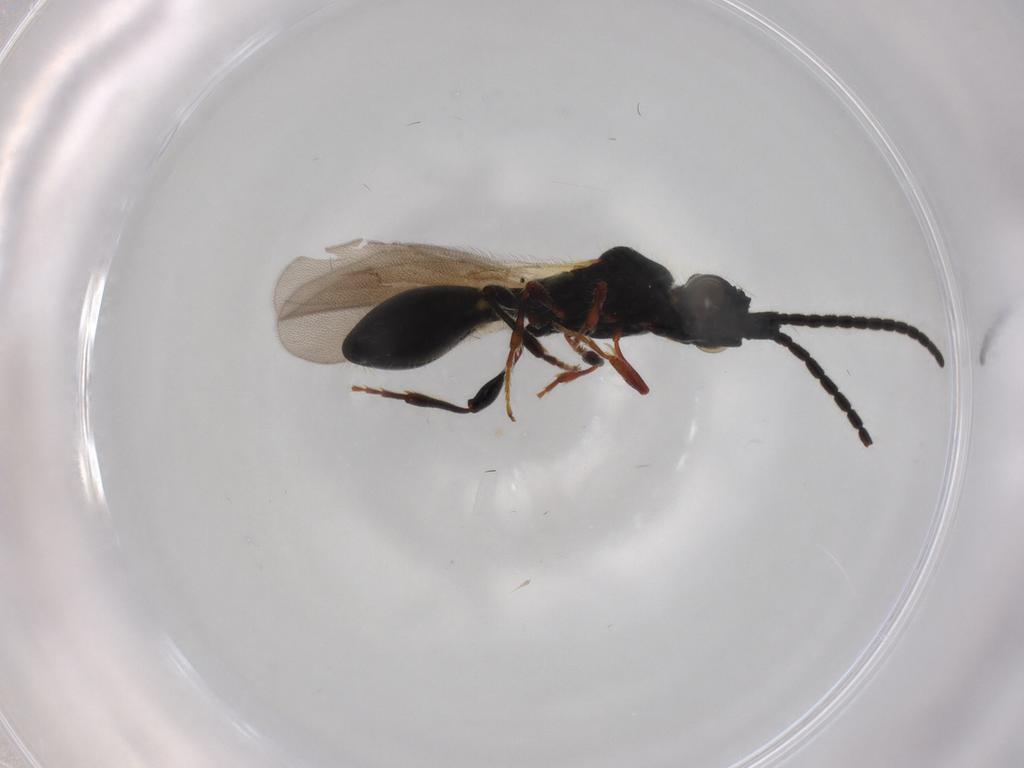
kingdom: Animalia
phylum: Arthropoda
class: Insecta
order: Hymenoptera
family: Diapriidae
